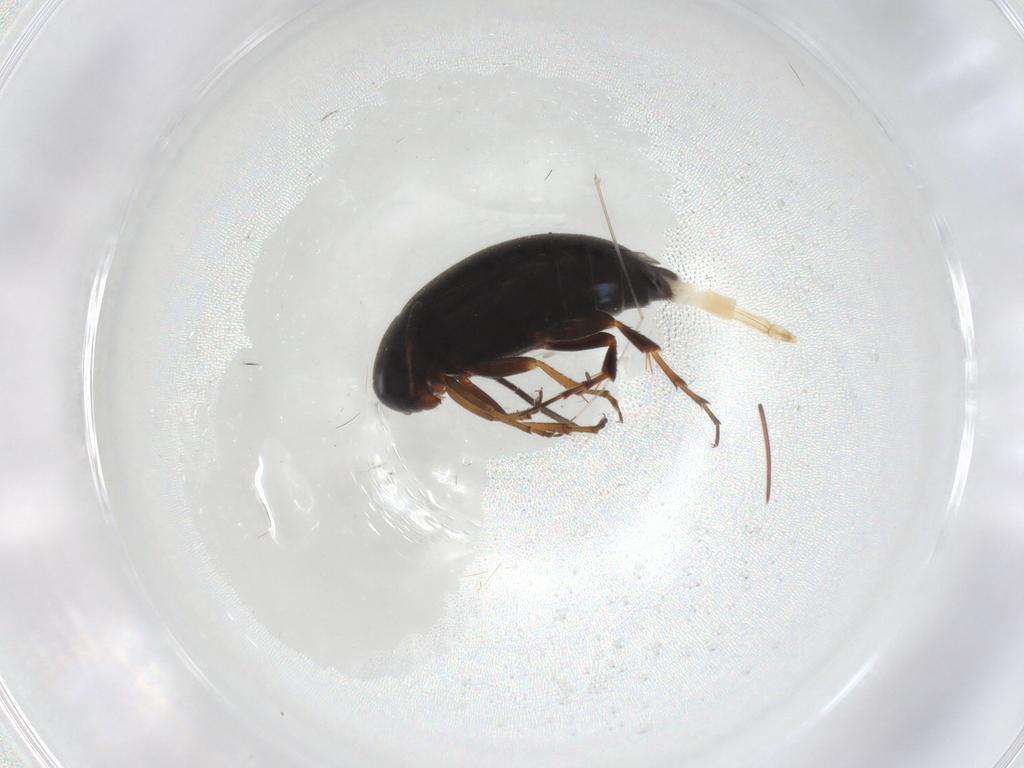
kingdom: Animalia
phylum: Arthropoda
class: Insecta
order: Coleoptera
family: Scraptiidae
